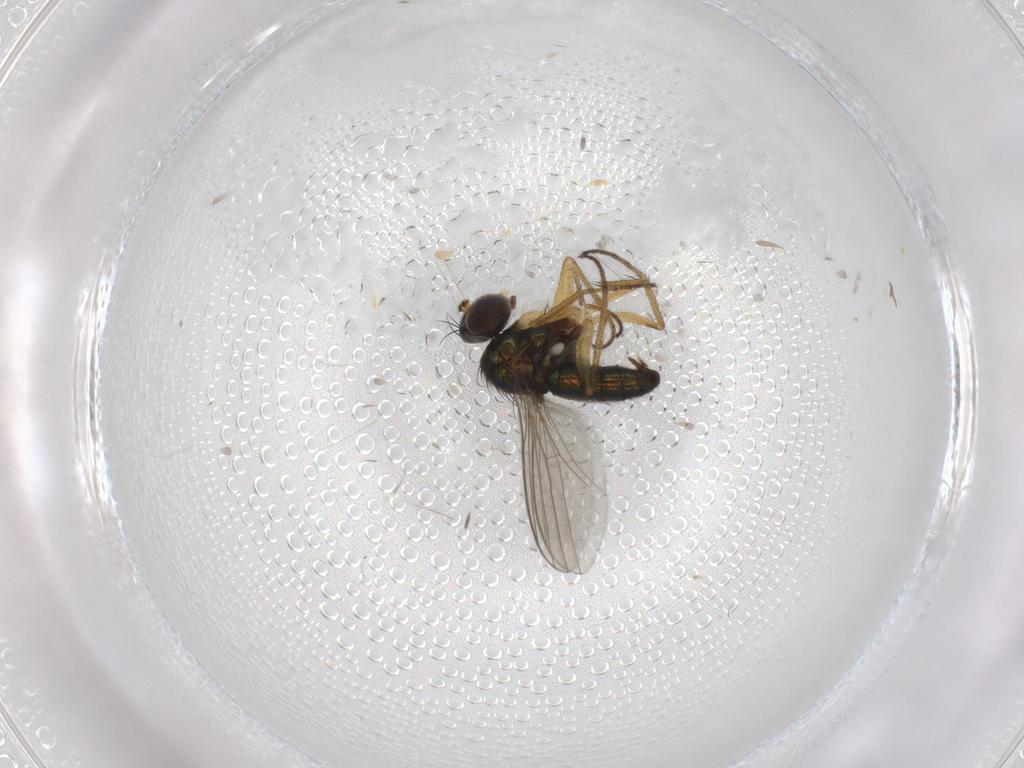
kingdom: Animalia
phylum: Arthropoda
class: Insecta
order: Diptera
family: Dolichopodidae
